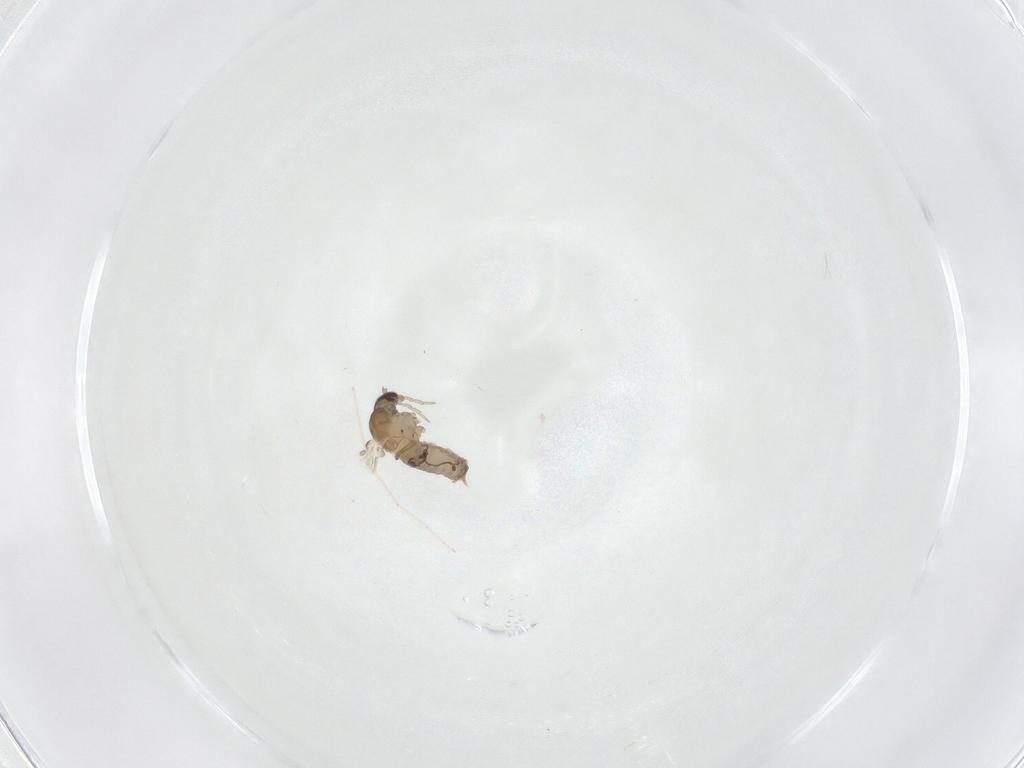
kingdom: Animalia
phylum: Arthropoda
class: Insecta
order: Diptera
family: Psychodidae
